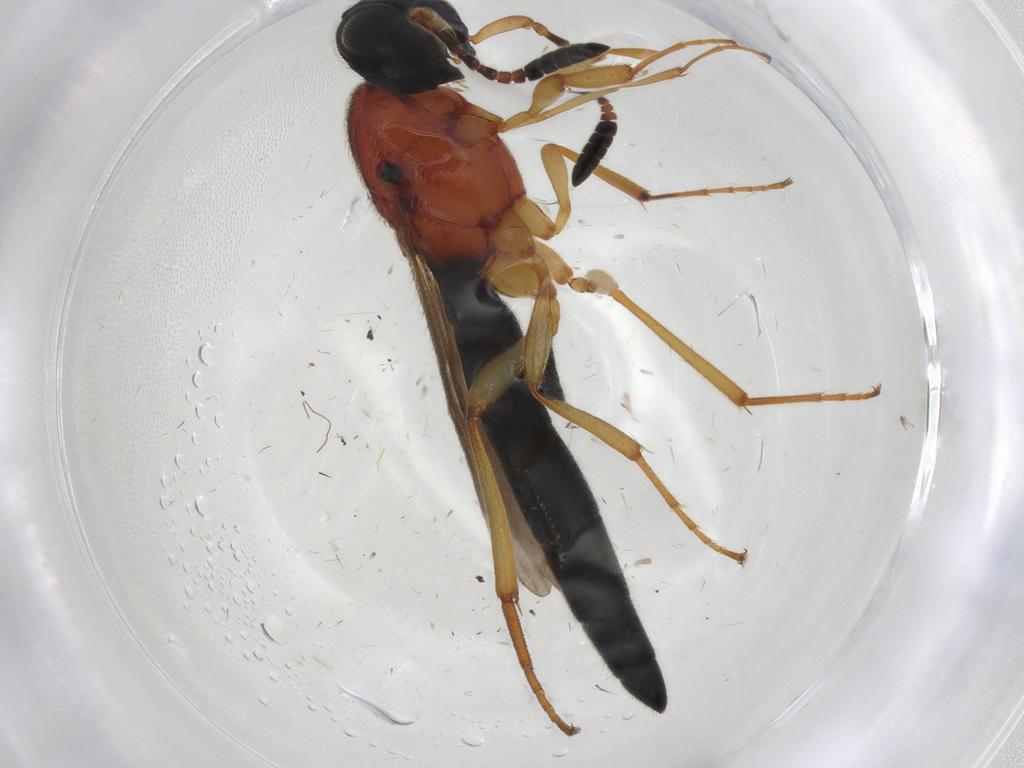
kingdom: Animalia
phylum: Arthropoda
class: Insecta
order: Hymenoptera
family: Scelionidae
